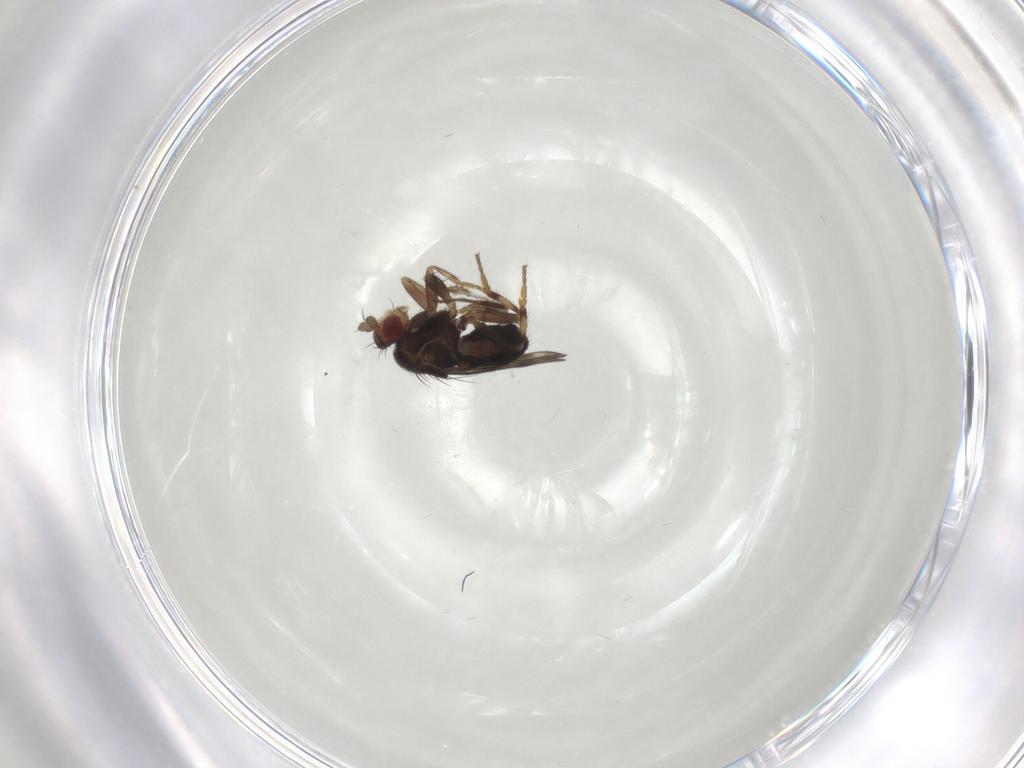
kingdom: Animalia
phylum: Arthropoda
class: Insecta
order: Diptera
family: Sphaeroceridae
